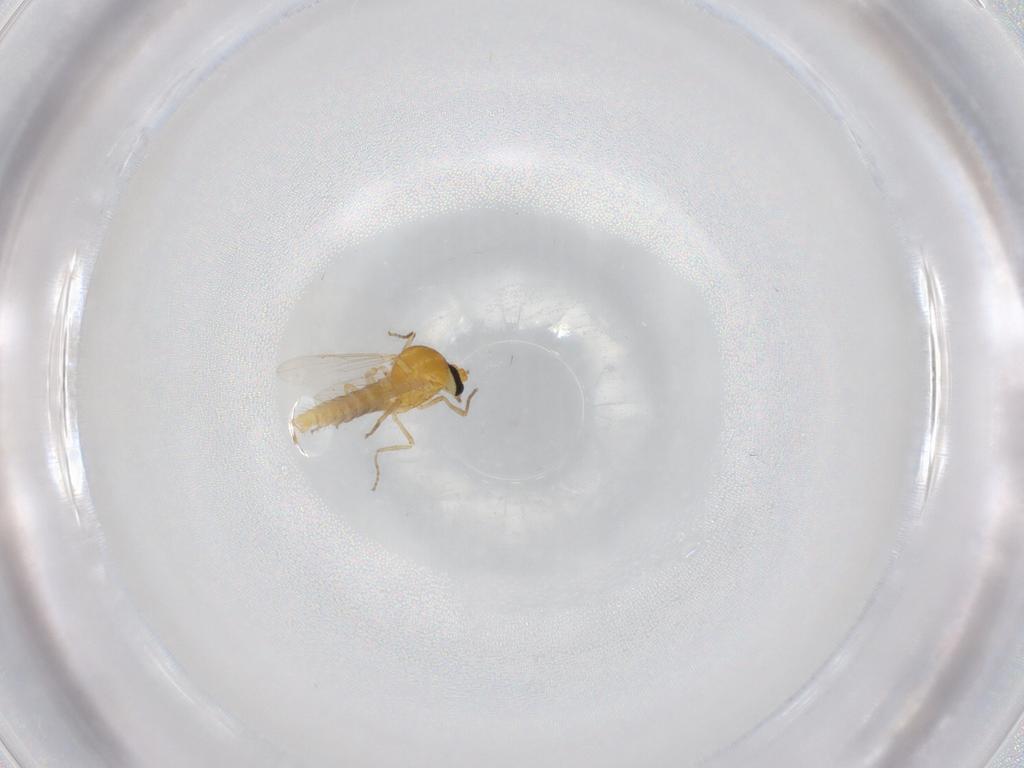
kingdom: Animalia
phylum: Arthropoda
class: Insecta
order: Diptera
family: Ceratopogonidae
